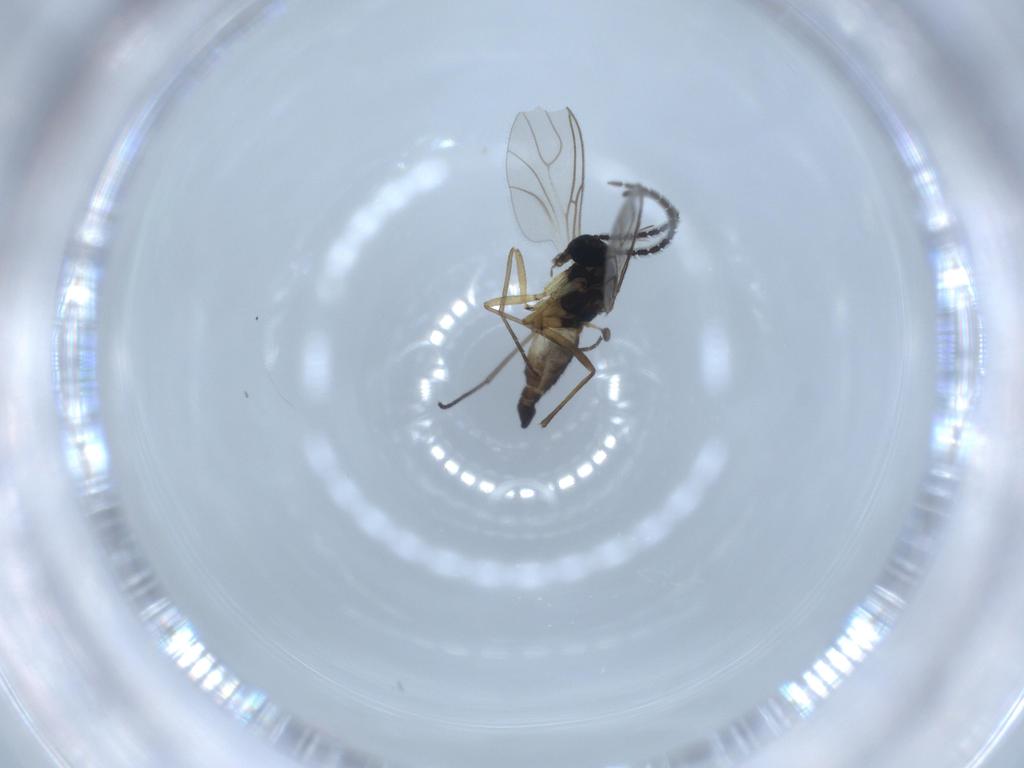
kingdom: Animalia
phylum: Arthropoda
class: Insecta
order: Diptera
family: Sciaridae
